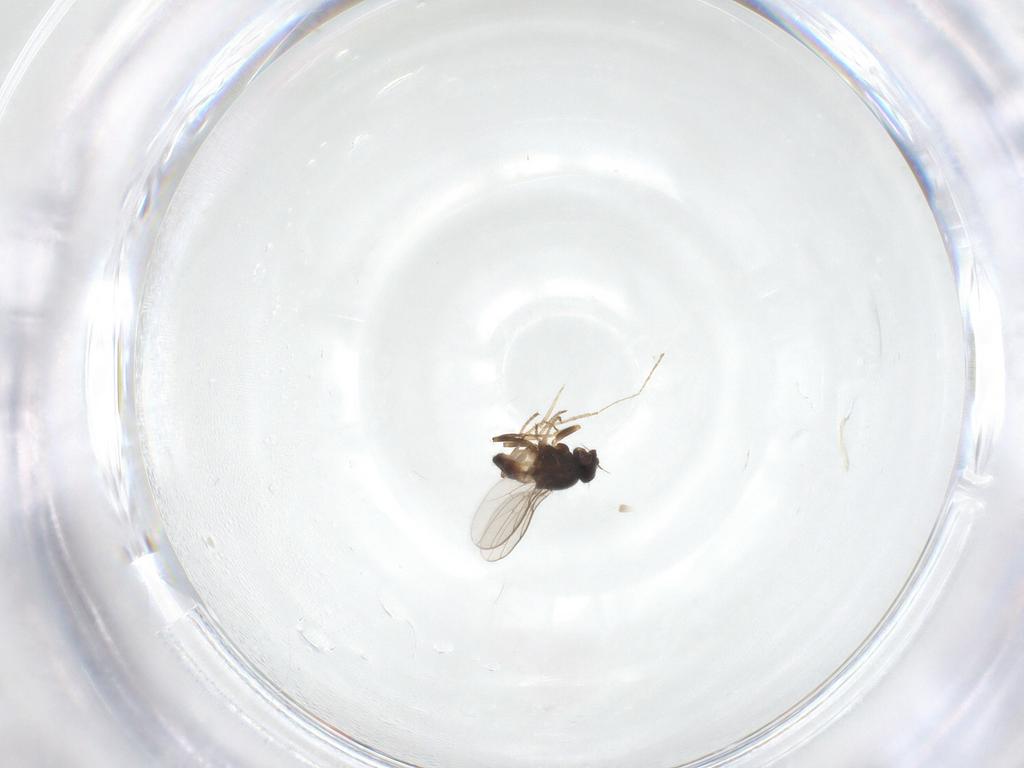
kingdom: Animalia
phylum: Arthropoda
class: Insecta
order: Diptera
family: Chloropidae
